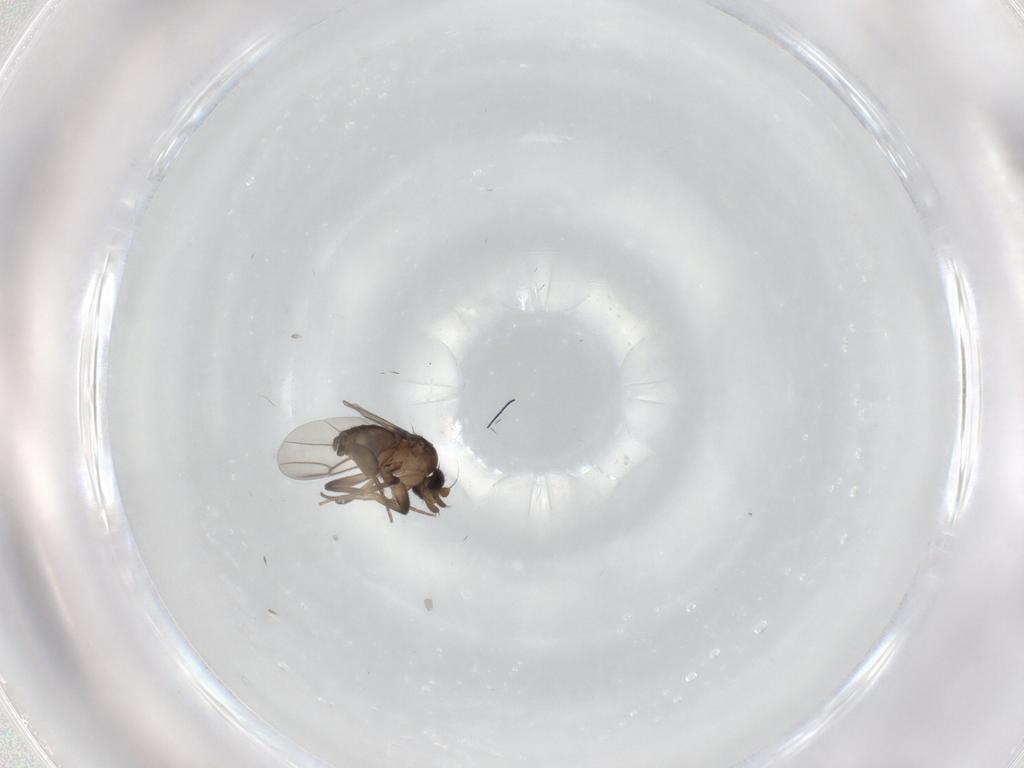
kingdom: Animalia
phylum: Arthropoda
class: Insecta
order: Diptera
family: Phoridae
